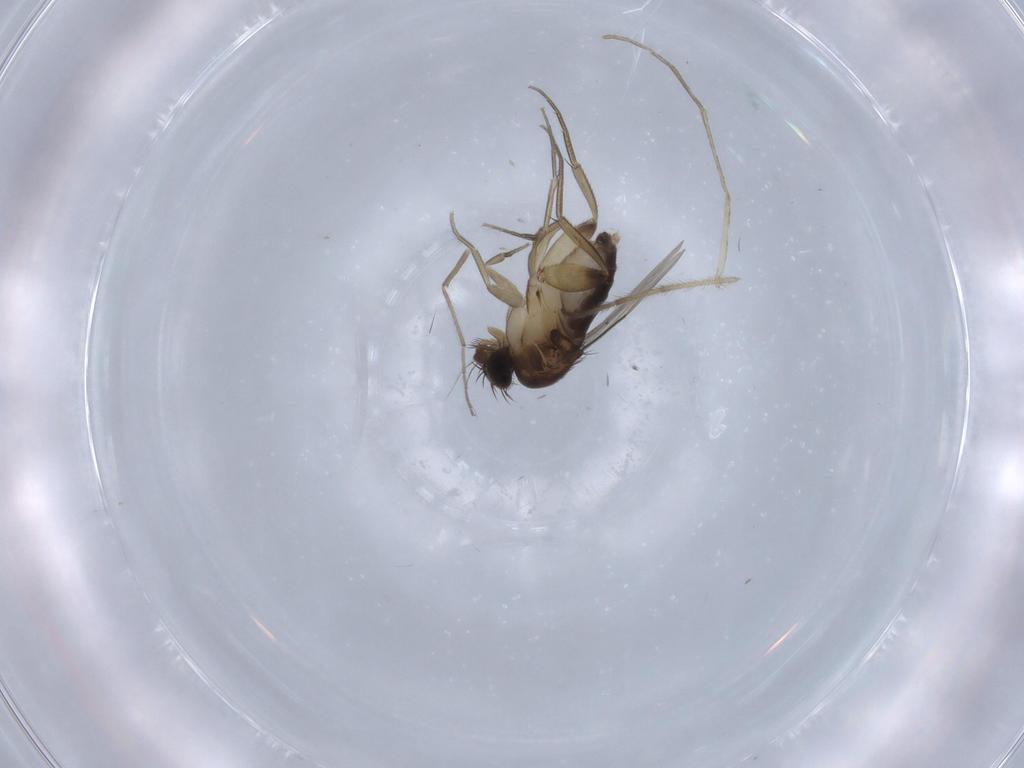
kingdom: Animalia
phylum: Arthropoda
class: Insecta
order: Diptera
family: Phoridae
